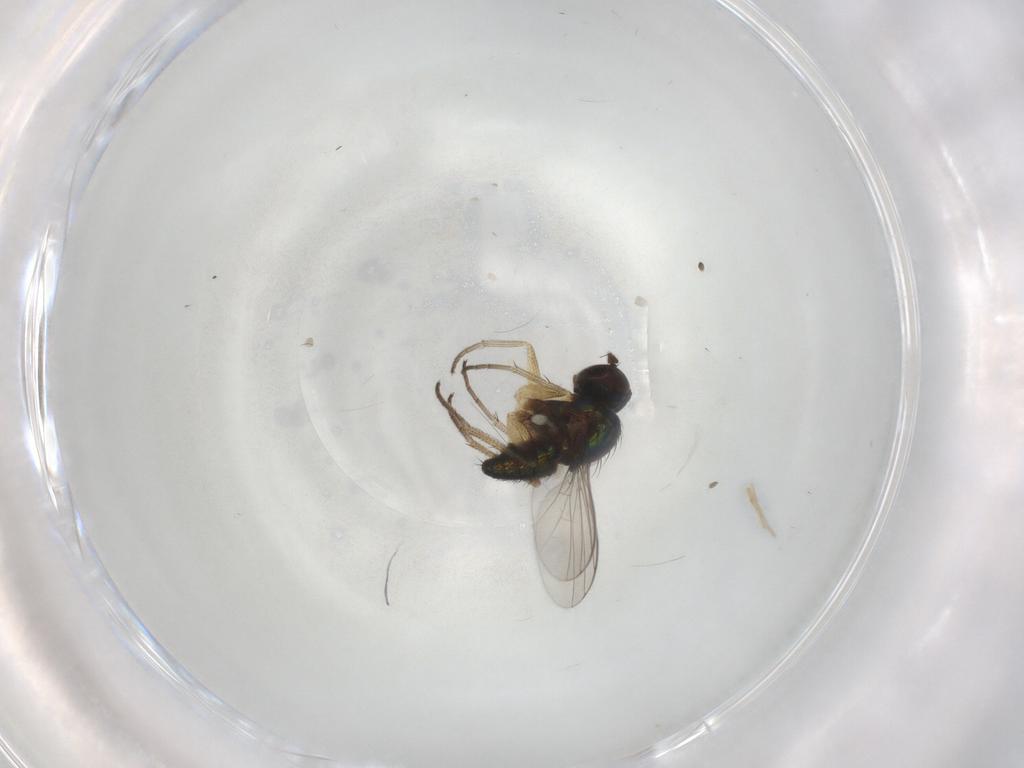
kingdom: Animalia
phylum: Arthropoda
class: Insecta
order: Diptera
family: Dolichopodidae
